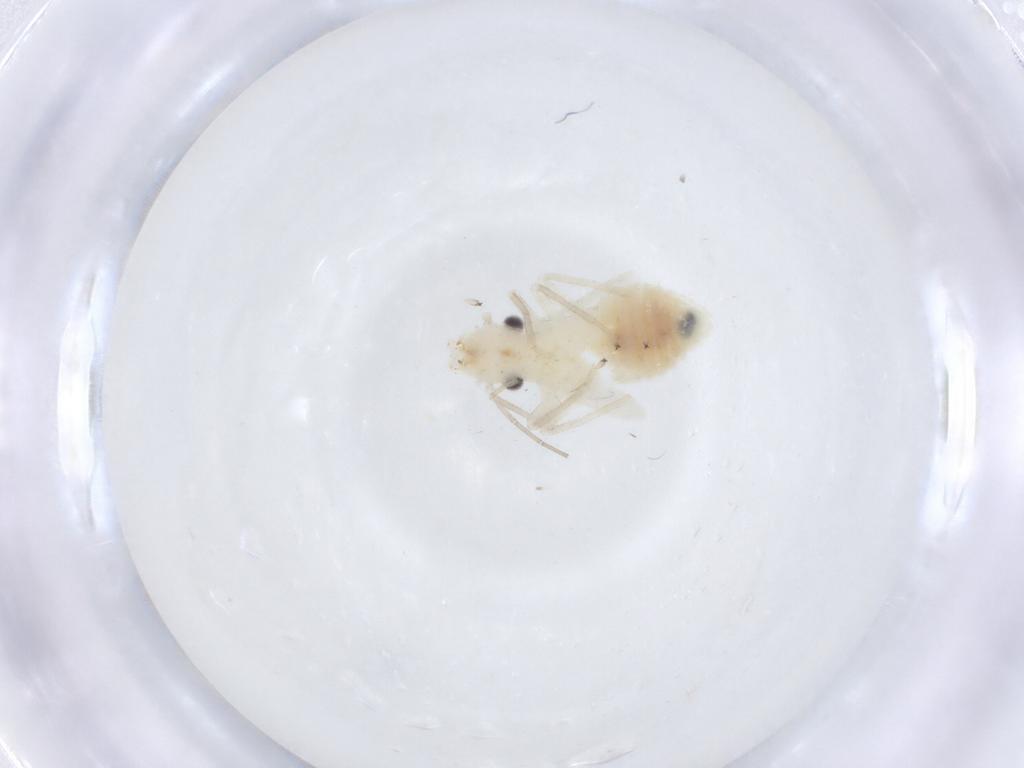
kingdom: Animalia
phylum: Arthropoda
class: Insecta
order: Psocodea
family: Caeciliusidae
